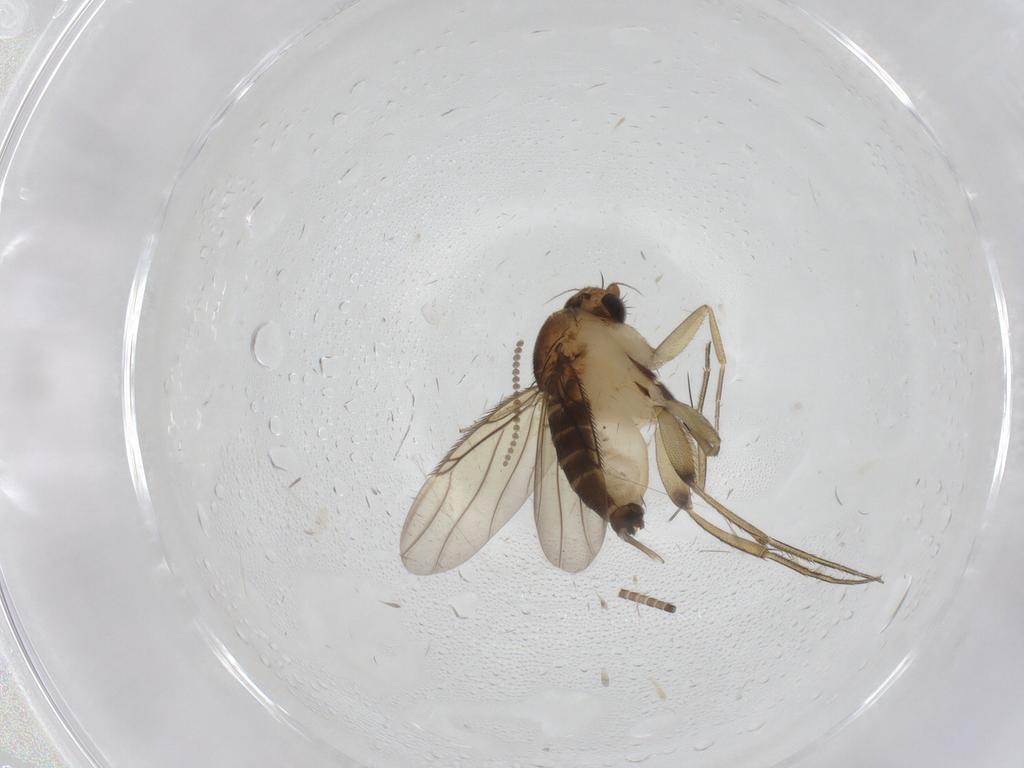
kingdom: Animalia
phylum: Arthropoda
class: Insecta
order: Diptera
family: Phoridae
